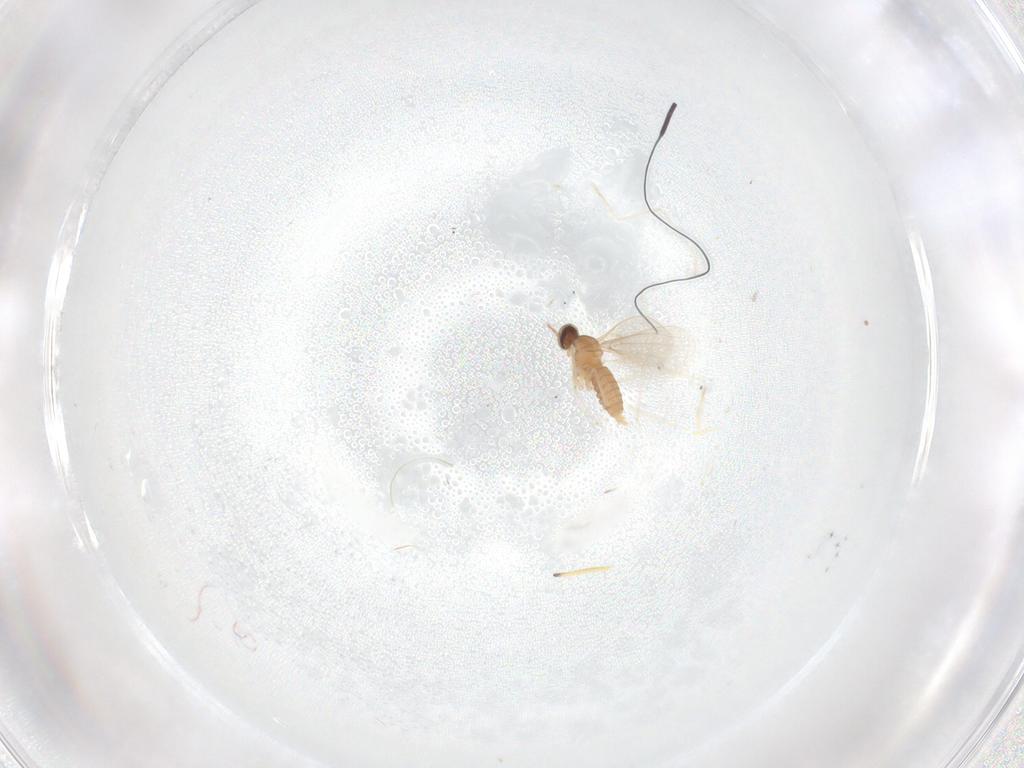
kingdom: Animalia
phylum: Arthropoda
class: Insecta
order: Diptera
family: Cecidomyiidae
